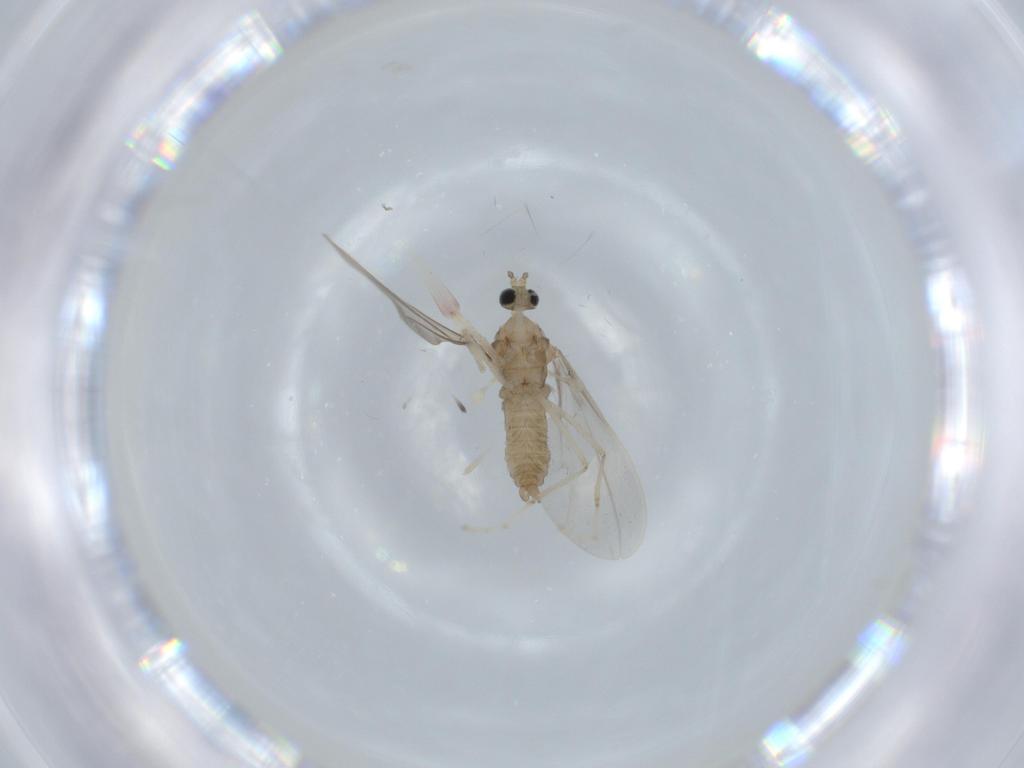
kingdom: Animalia
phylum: Arthropoda
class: Insecta
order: Diptera
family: Cecidomyiidae
